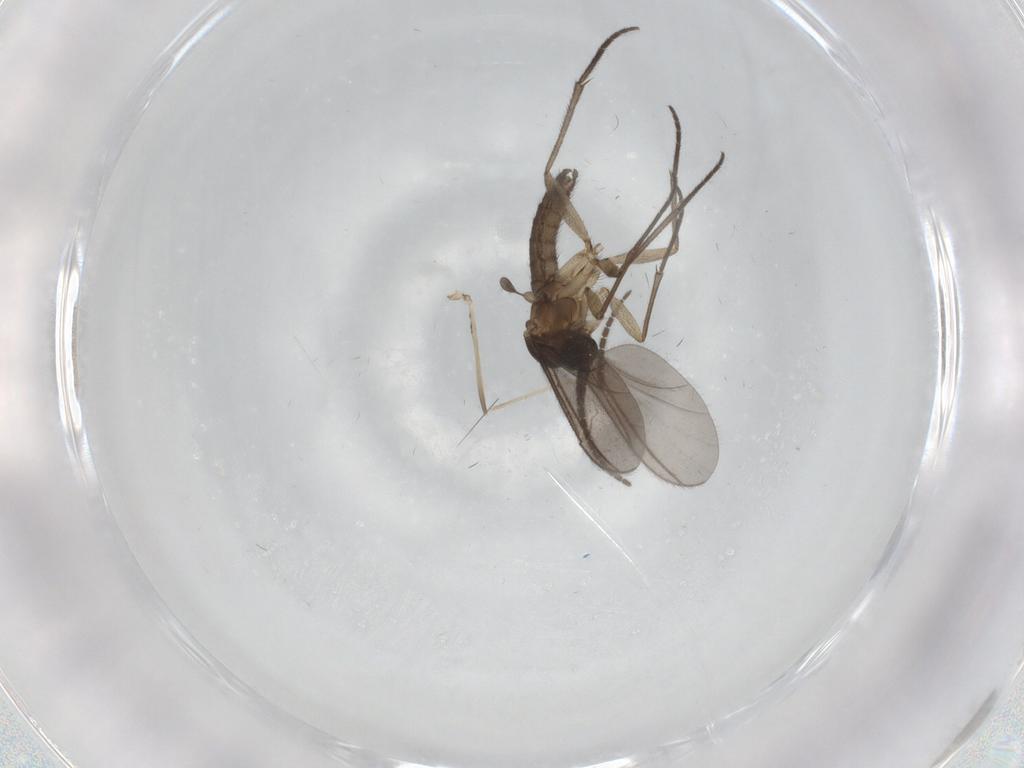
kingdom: Animalia
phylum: Arthropoda
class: Insecta
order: Diptera
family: Sciaridae
